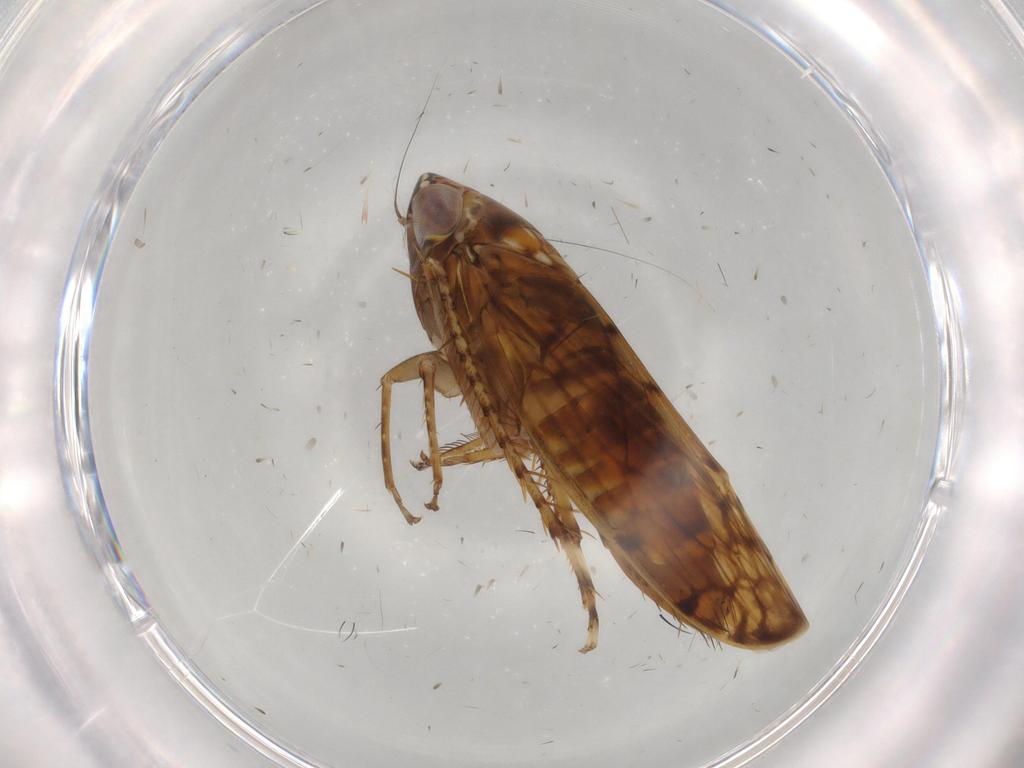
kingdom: Animalia
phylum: Arthropoda
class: Insecta
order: Hemiptera
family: Cicadellidae
